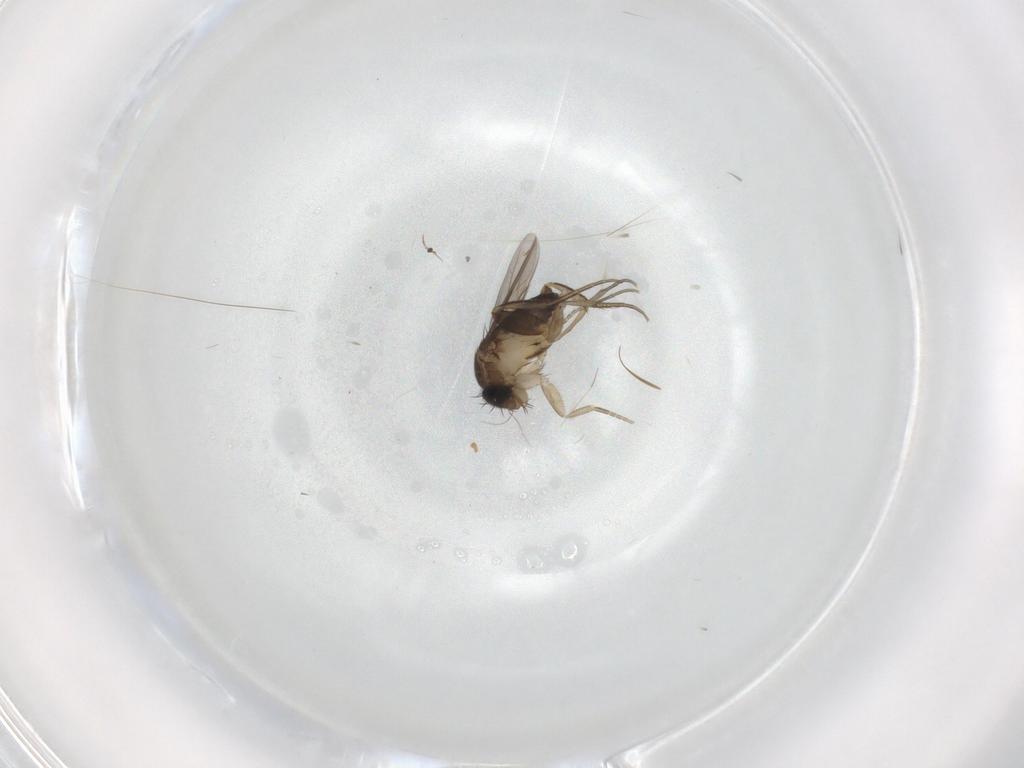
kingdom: Animalia
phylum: Arthropoda
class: Insecta
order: Diptera
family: Phoridae
